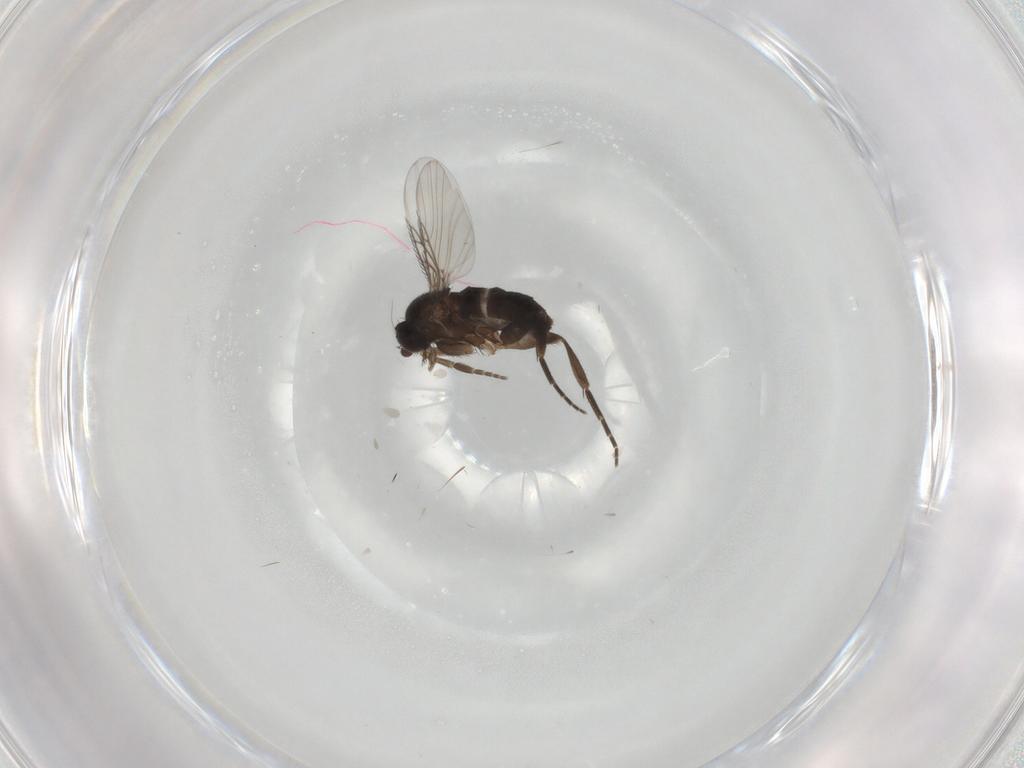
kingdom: Animalia
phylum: Arthropoda
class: Insecta
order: Diptera
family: Phoridae
